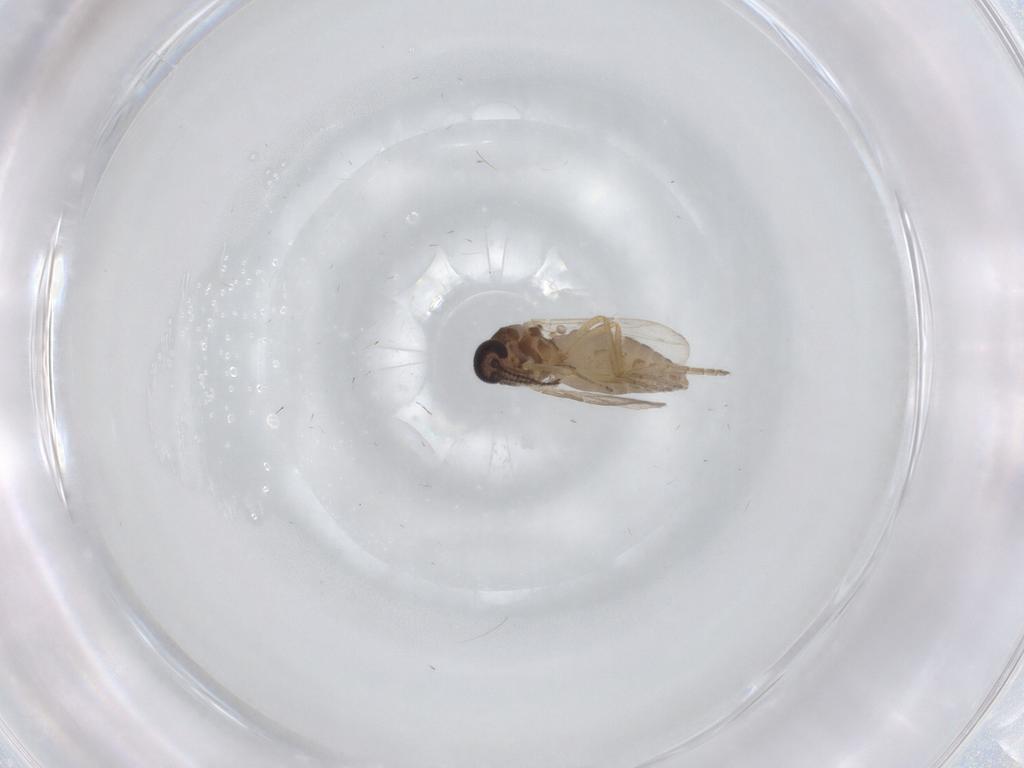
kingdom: Animalia
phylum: Arthropoda
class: Insecta
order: Diptera
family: Ceratopogonidae
